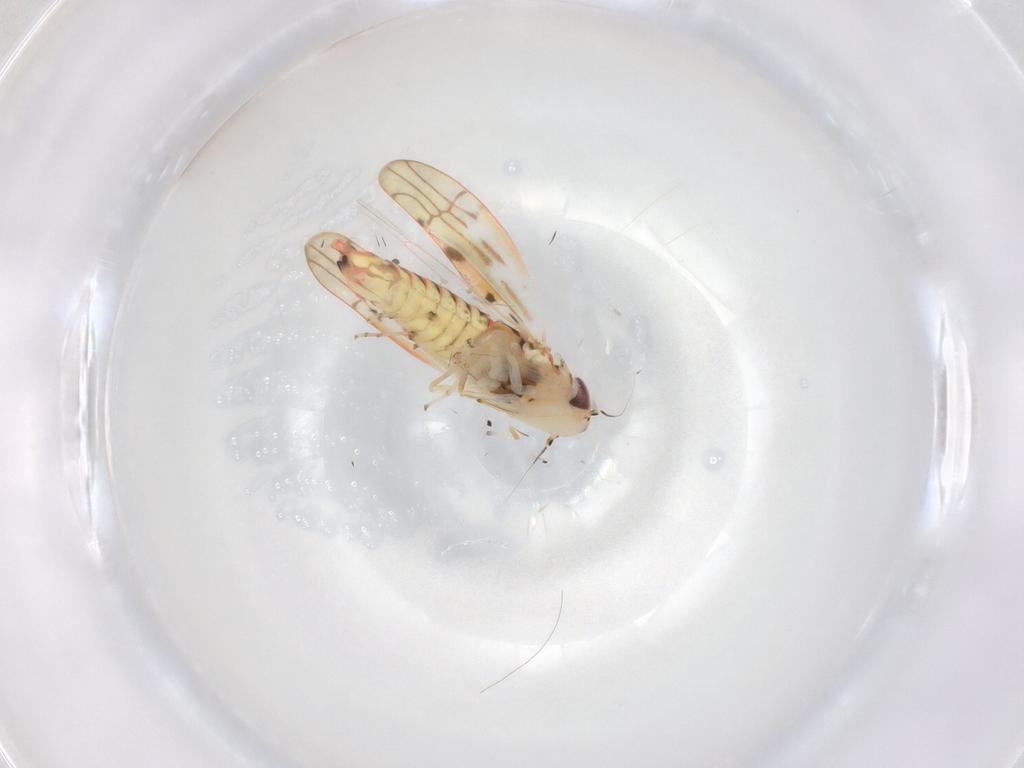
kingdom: Animalia
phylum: Arthropoda
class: Insecta
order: Hemiptera
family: Cicadellidae
